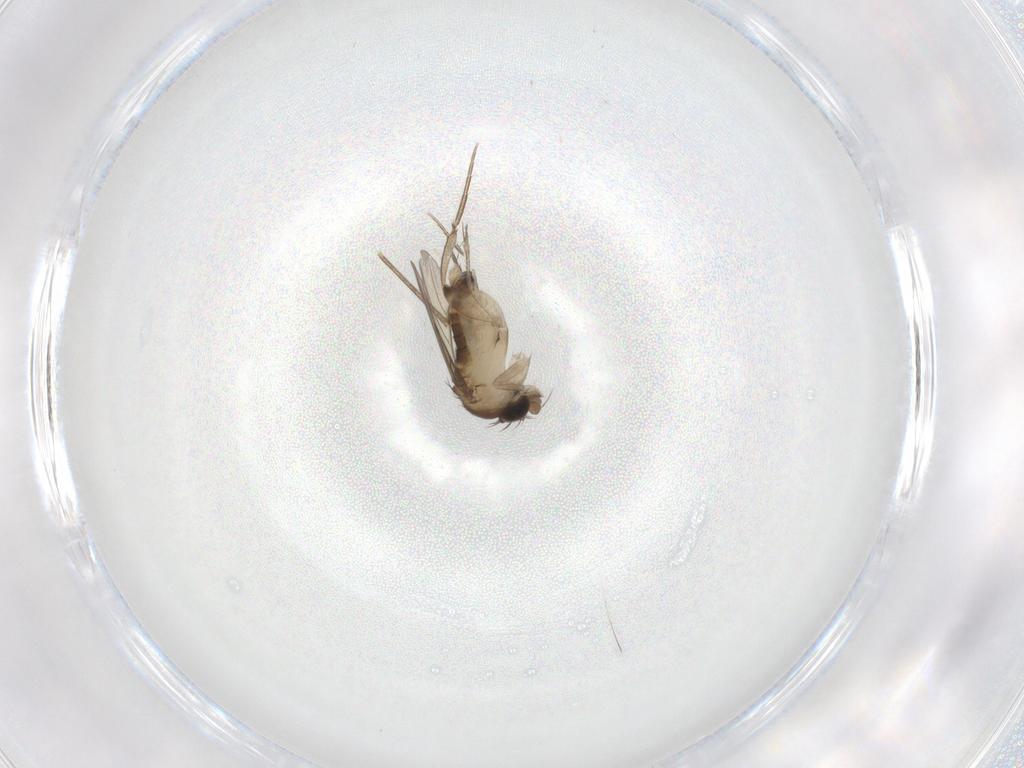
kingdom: Animalia
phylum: Arthropoda
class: Insecta
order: Diptera
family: Sciaridae
